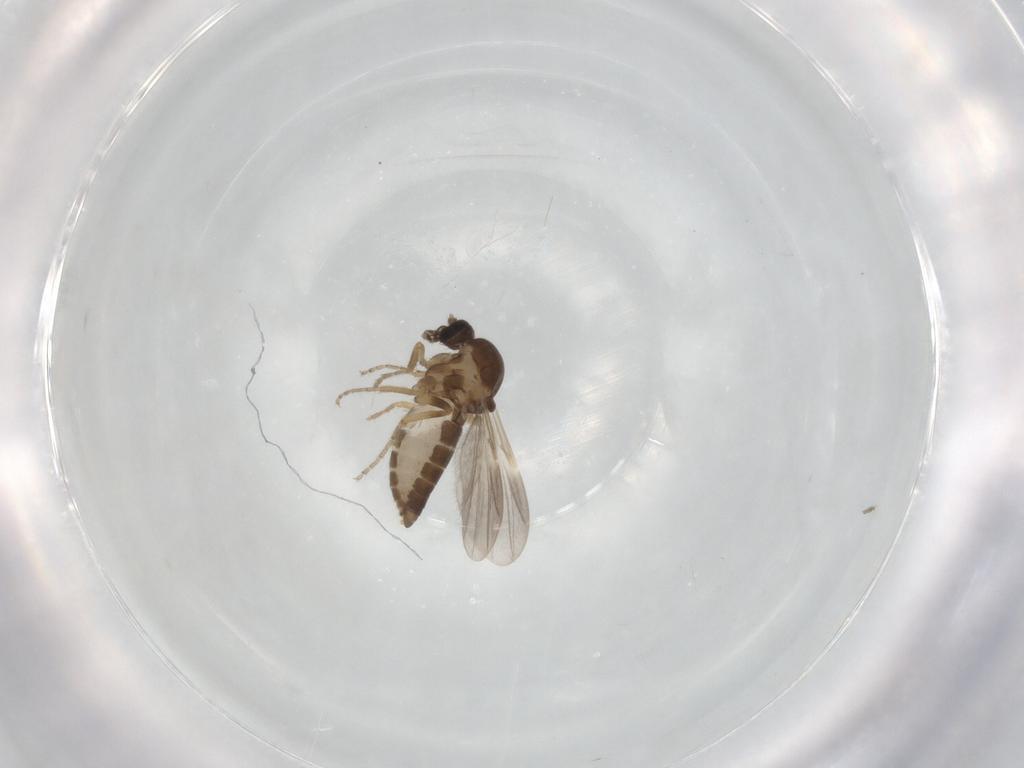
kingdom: Animalia
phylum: Arthropoda
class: Insecta
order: Diptera
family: Ceratopogonidae
